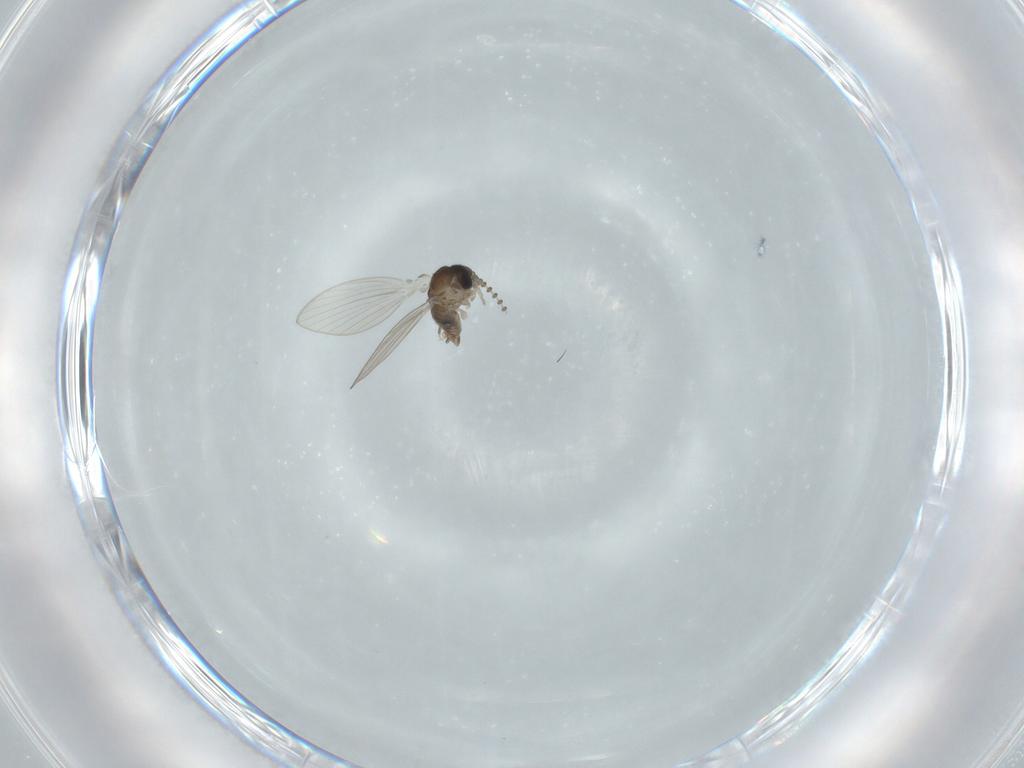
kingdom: Animalia
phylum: Arthropoda
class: Insecta
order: Diptera
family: Psychodidae
